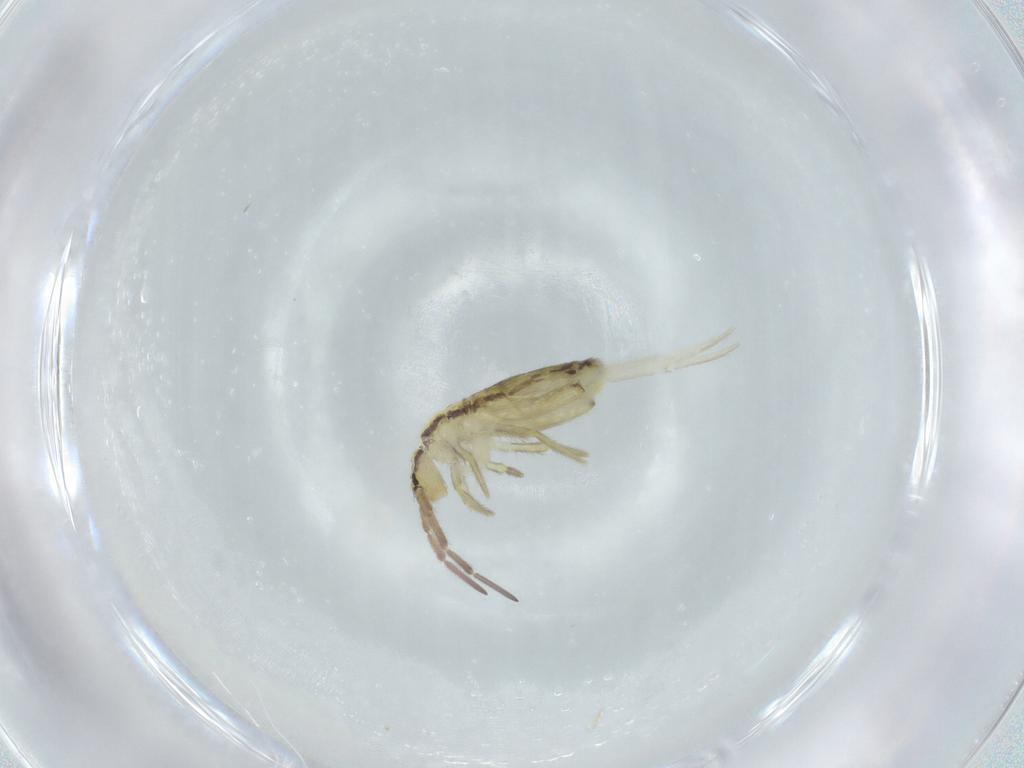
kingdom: Animalia
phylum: Arthropoda
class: Collembola
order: Entomobryomorpha
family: Entomobryidae
